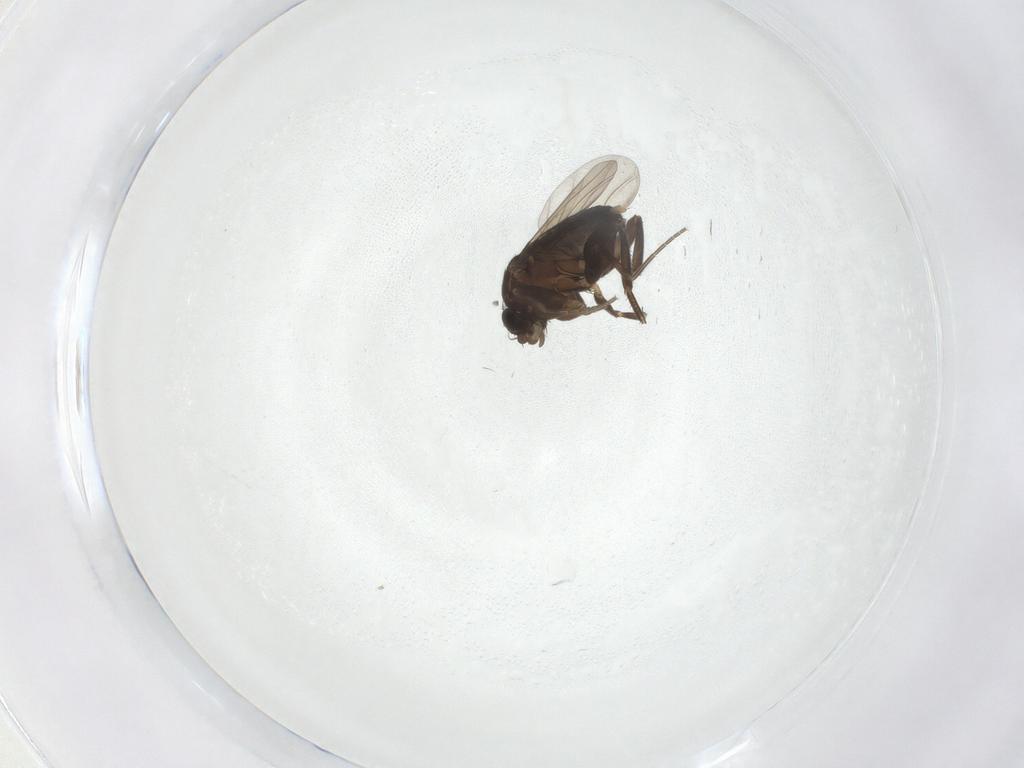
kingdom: Animalia
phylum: Arthropoda
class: Insecta
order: Diptera
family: Phoridae
